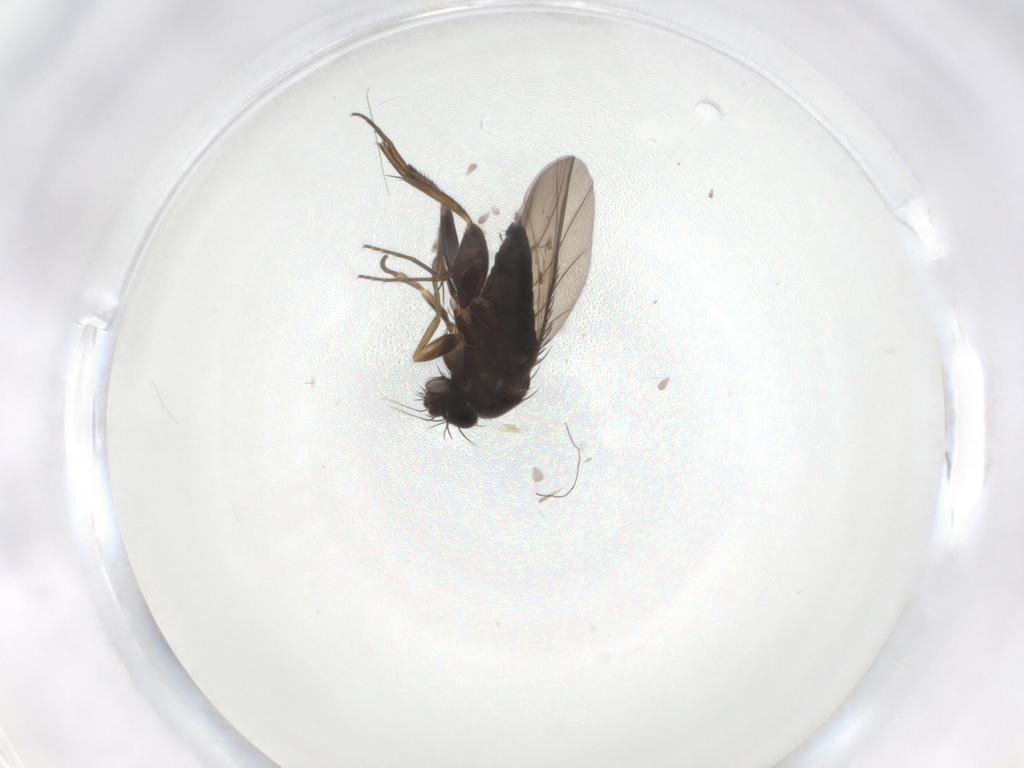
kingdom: Animalia
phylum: Arthropoda
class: Insecta
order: Diptera
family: Phoridae
